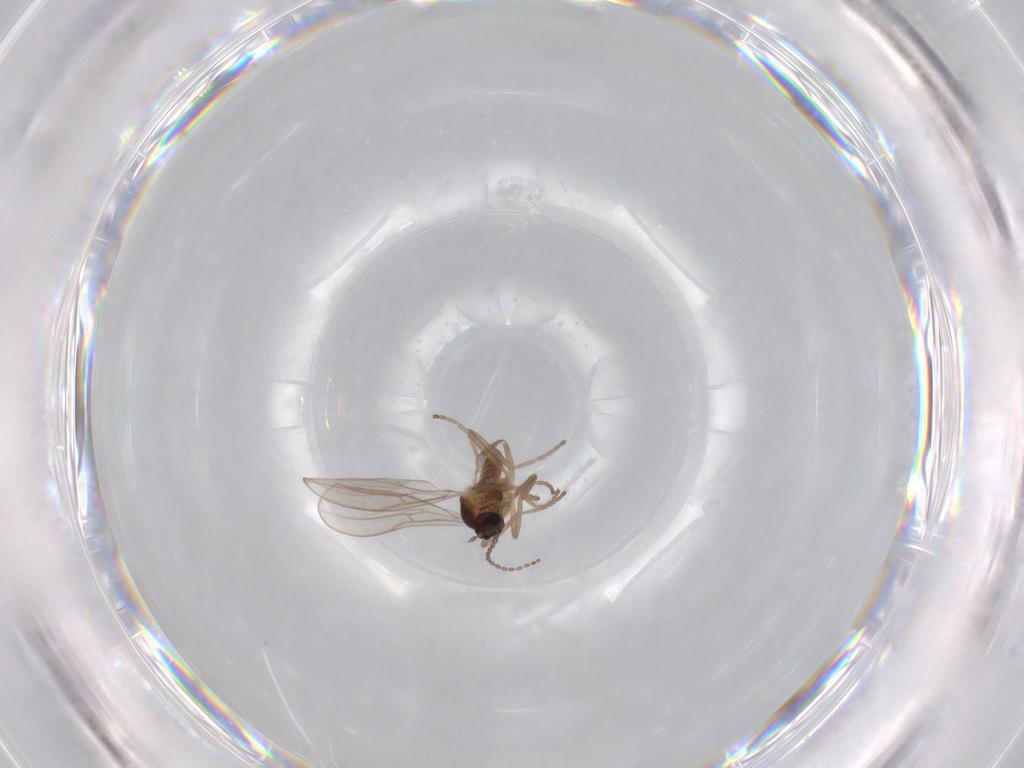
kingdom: Animalia
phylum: Arthropoda
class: Insecta
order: Diptera
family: Cecidomyiidae
